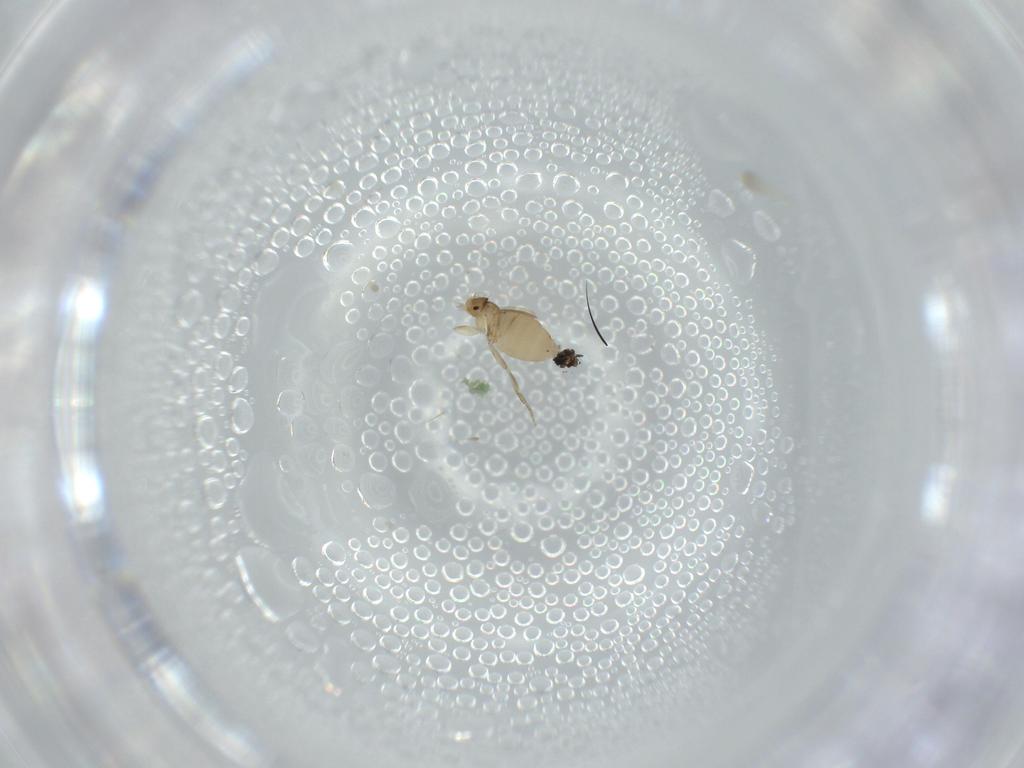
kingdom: Animalia
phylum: Arthropoda
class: Insecta
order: Diptera
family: Phoridae
